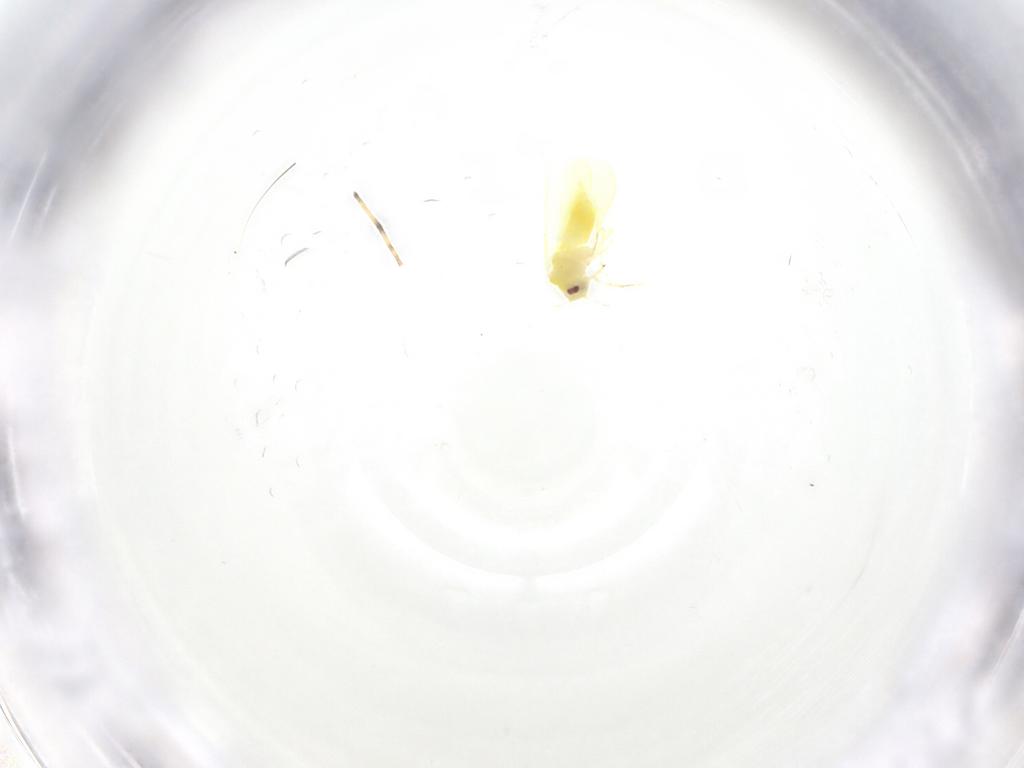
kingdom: Animalia
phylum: Arthropoda
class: Insecta
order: Hemiptera
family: Aleyrodidae
